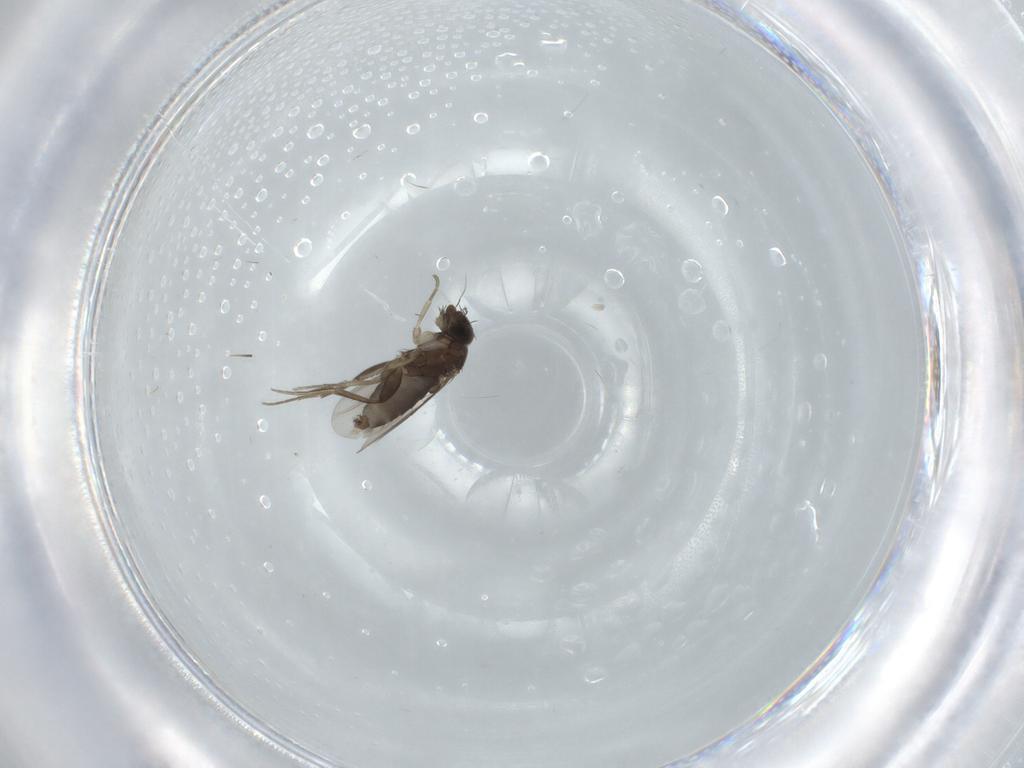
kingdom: Animalia
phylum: Arthropoda
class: Insecta
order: Diptera
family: Phoridae
